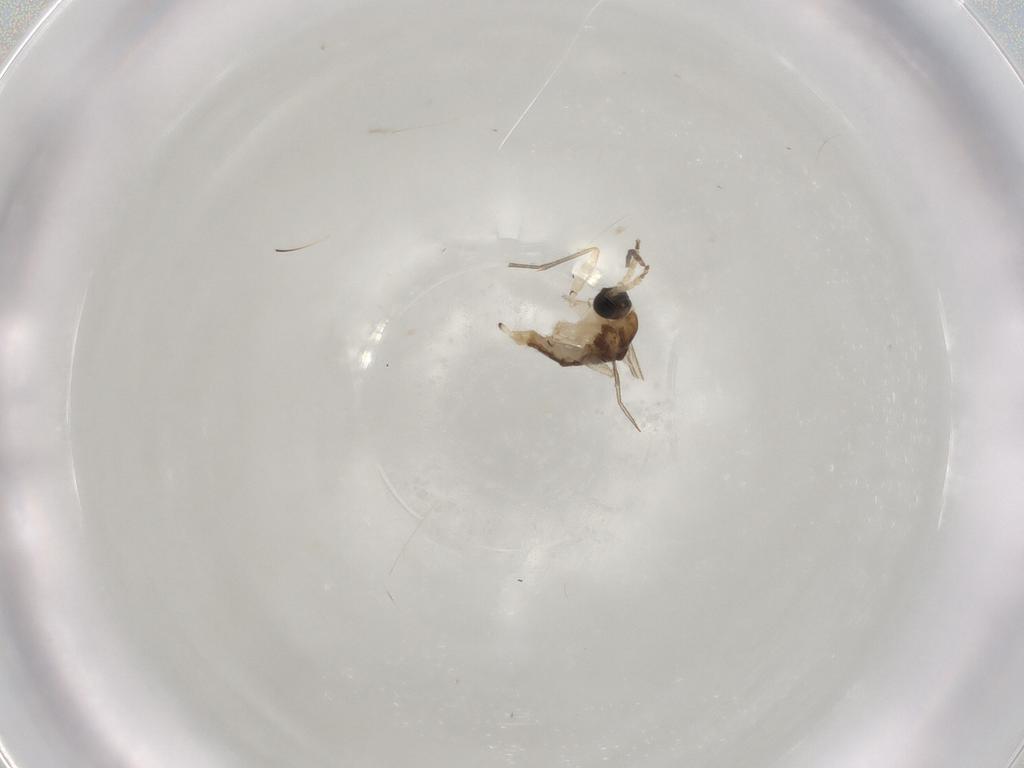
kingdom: Animalia
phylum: Arthropoda
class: Insecta
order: Diptera
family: Sciaridae
